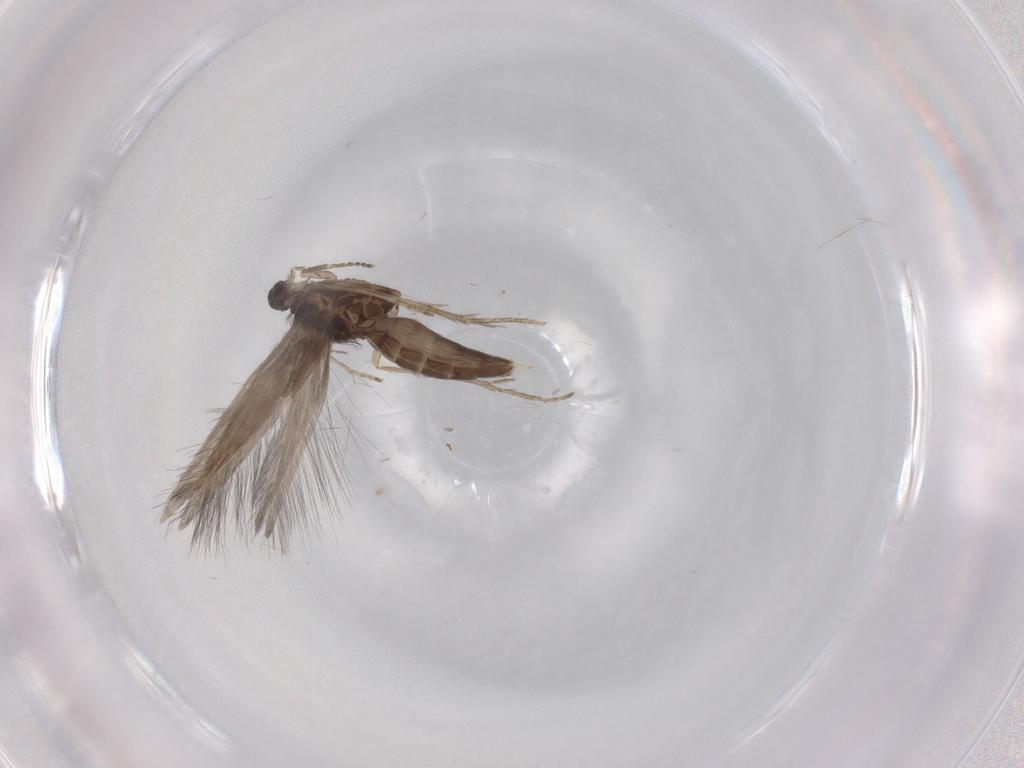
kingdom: Animalia
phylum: Arthropoda
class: Insecta
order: Trichoptera
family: Hydroptilidae
